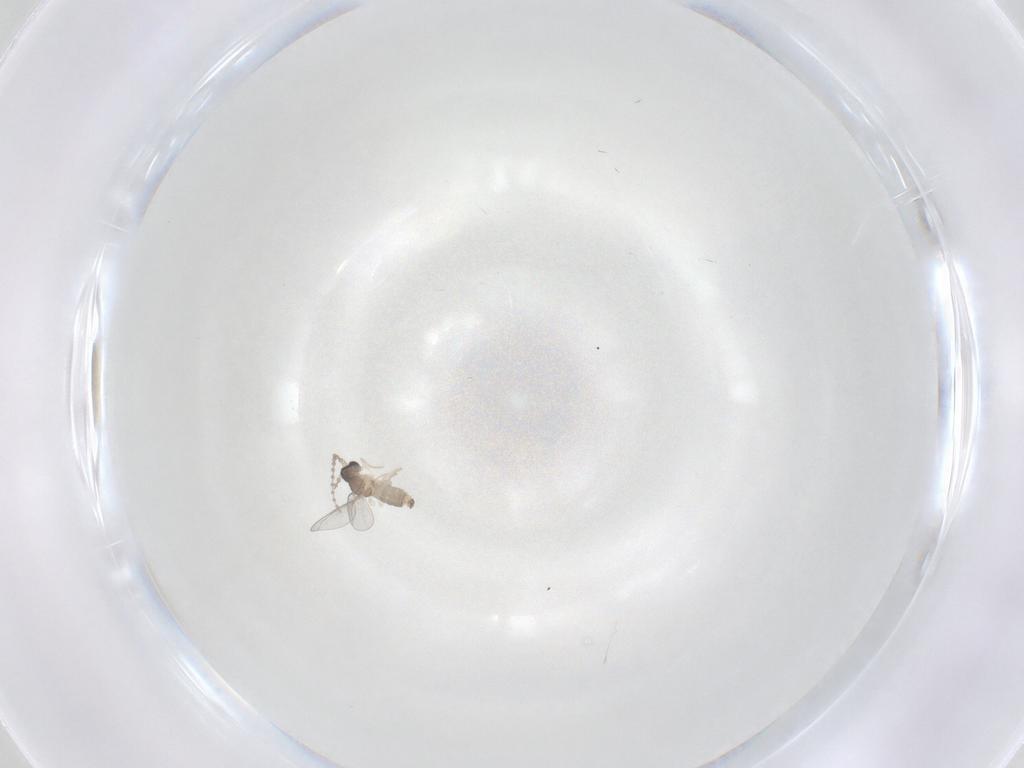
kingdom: Animalia
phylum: Arthropoda
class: Insecta
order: Diptera
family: Cecidomyiidae
